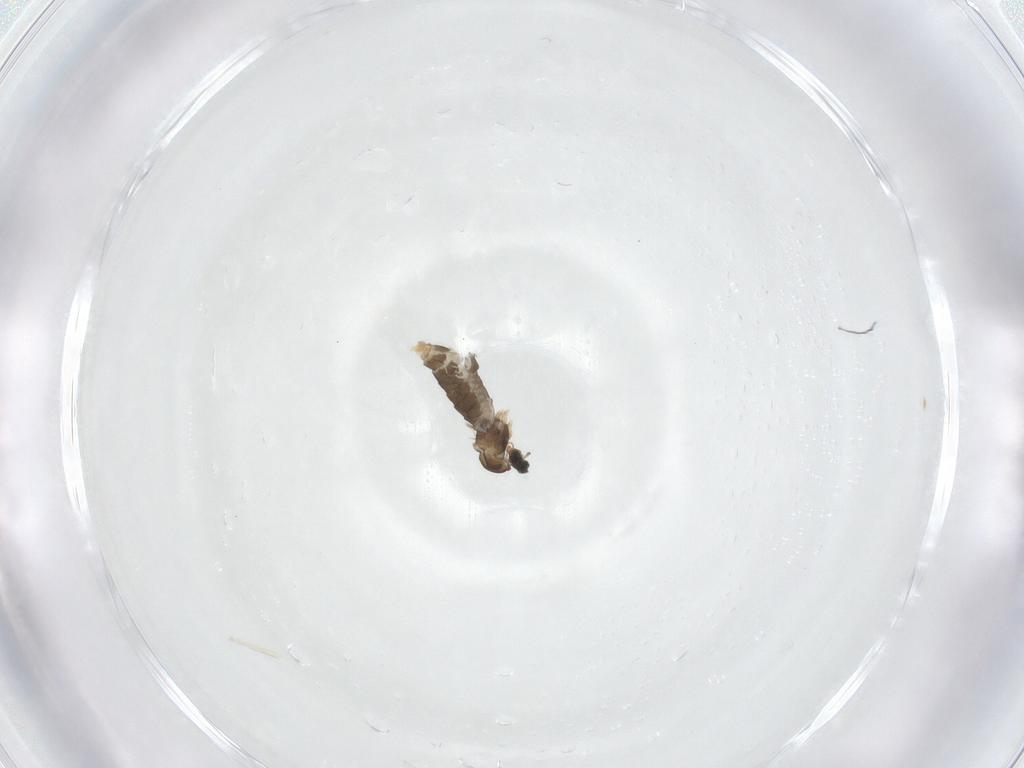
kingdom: Animalia
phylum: Arthropoda
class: Insecta
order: Diptera
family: Cecidomyiidae
